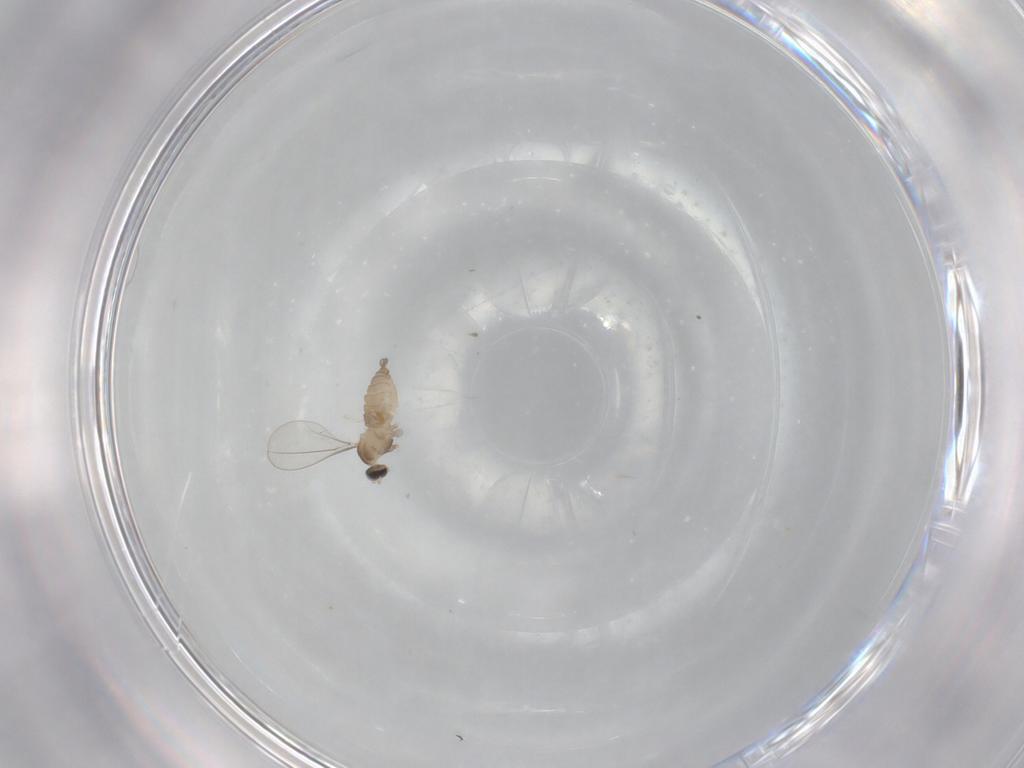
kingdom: Animalia
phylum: Arthropoda
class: Insecta
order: Diptera
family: Cecidomyiidae
